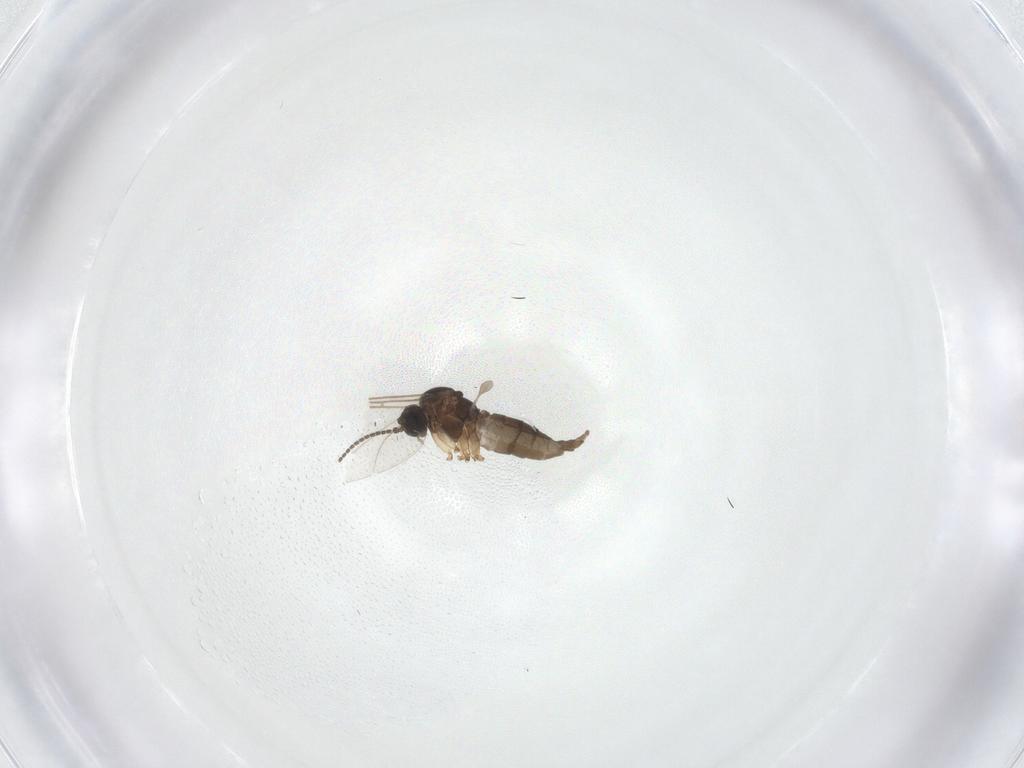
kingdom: Animalia
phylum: Arthropoda
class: Insecta
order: Diptera
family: Sciaridae
